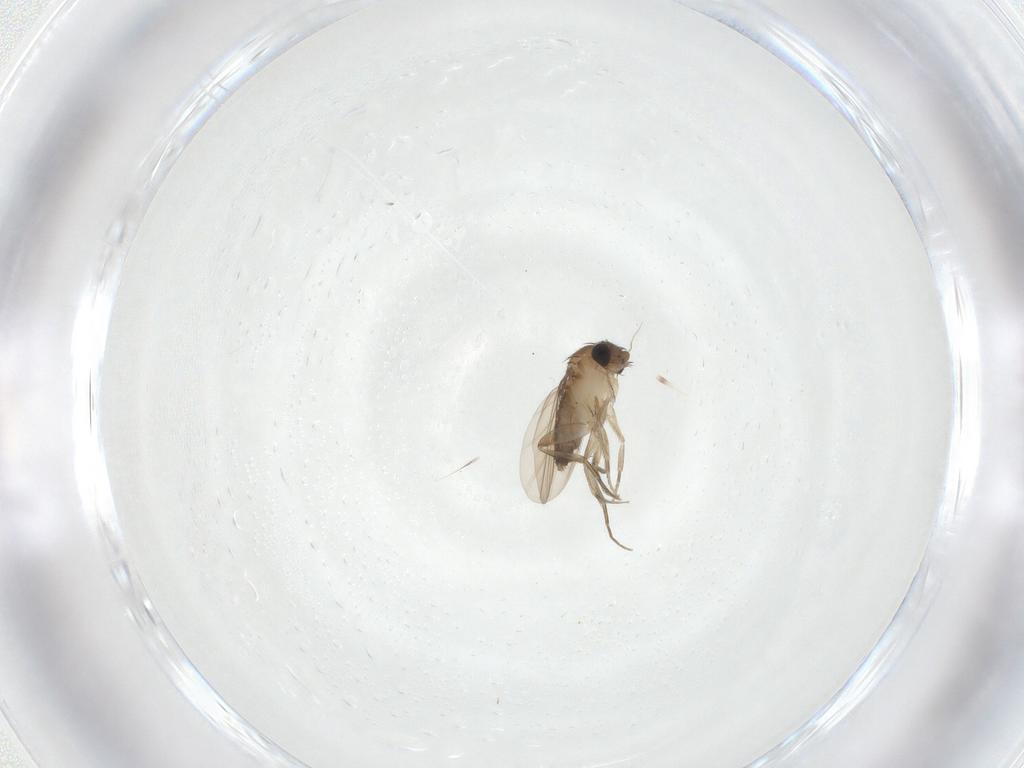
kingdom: Animalia
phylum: Arthropoda
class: Insecta
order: Diptera
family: Phoridae
